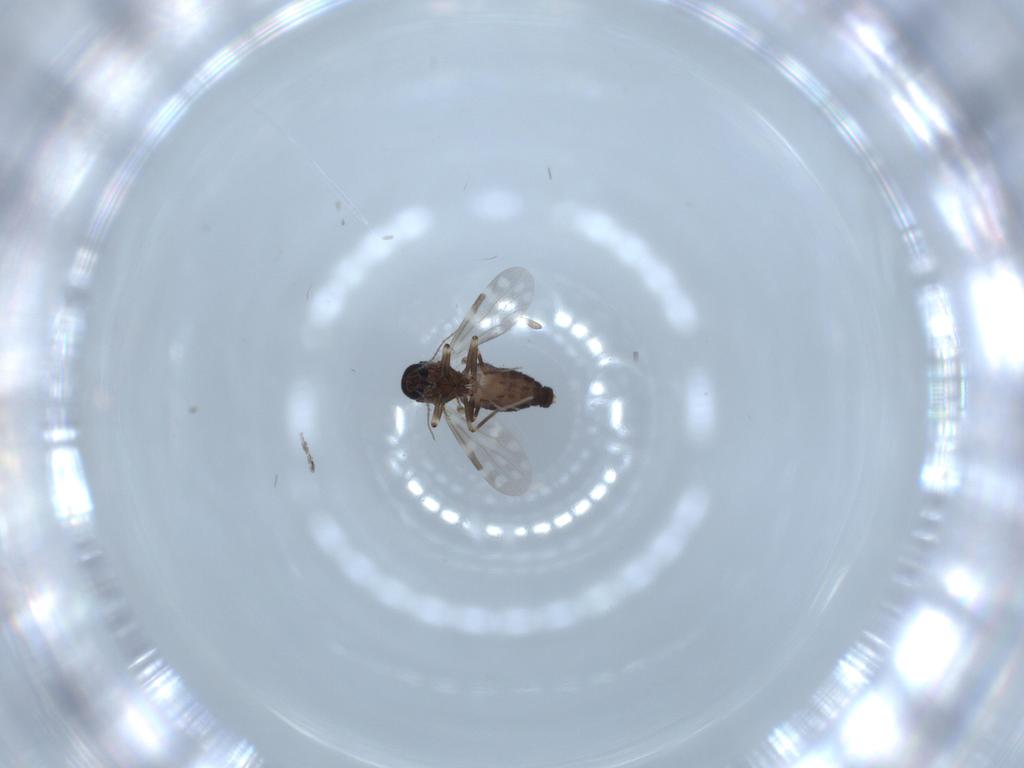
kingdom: Animalia
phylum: Arthropoda
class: Insecta
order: Diptera
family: Ceratopogonidae
